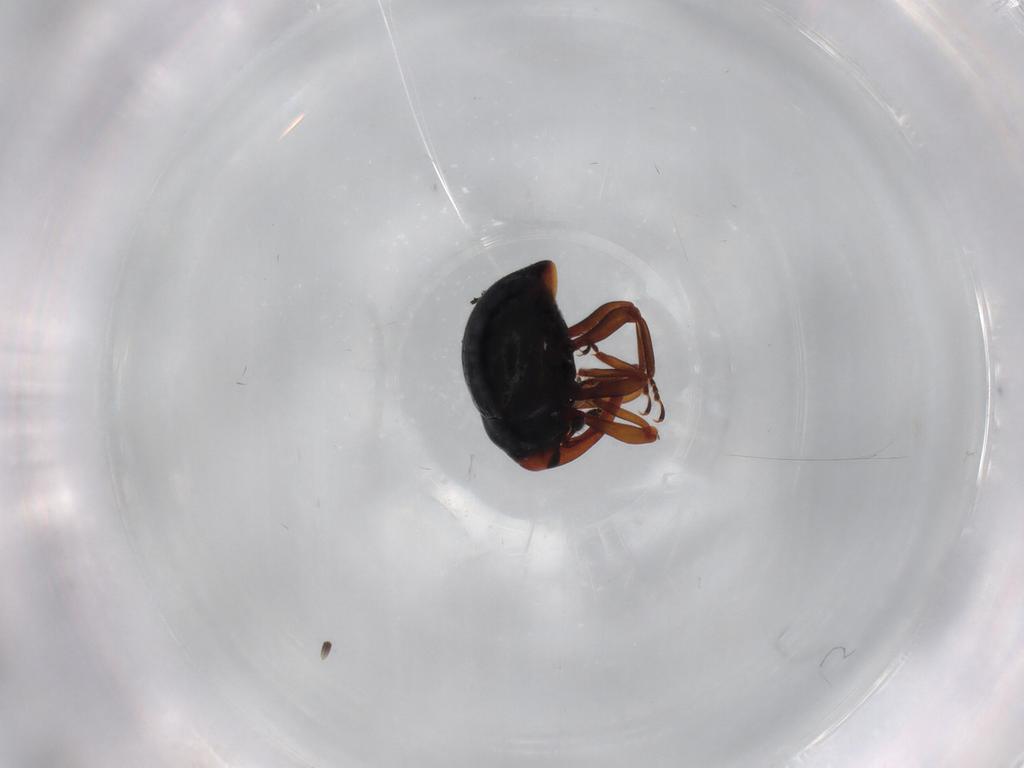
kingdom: Animalia
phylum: Arthropoda
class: Insecta
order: Coleoptera
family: Curculionidae
